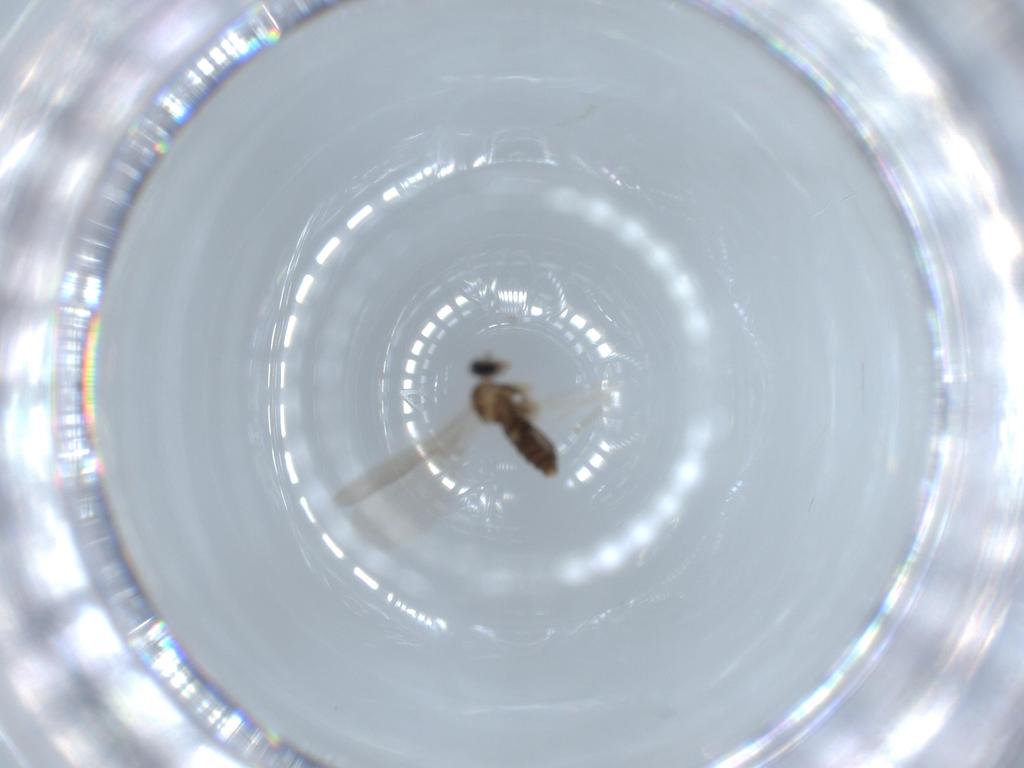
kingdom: Animalia
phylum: Arthropoda
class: Insecta
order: Diptera
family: Cecidomyiidae
